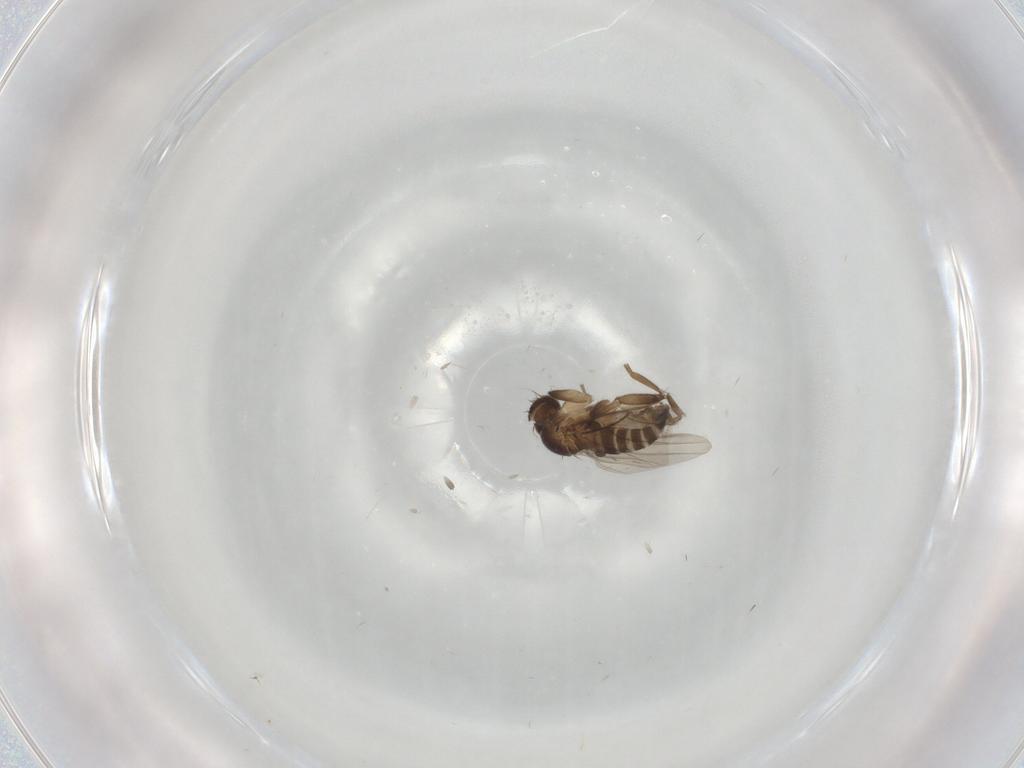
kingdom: Animalia
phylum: Arthropoda
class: Insecta
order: Diptera
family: Phoridae
